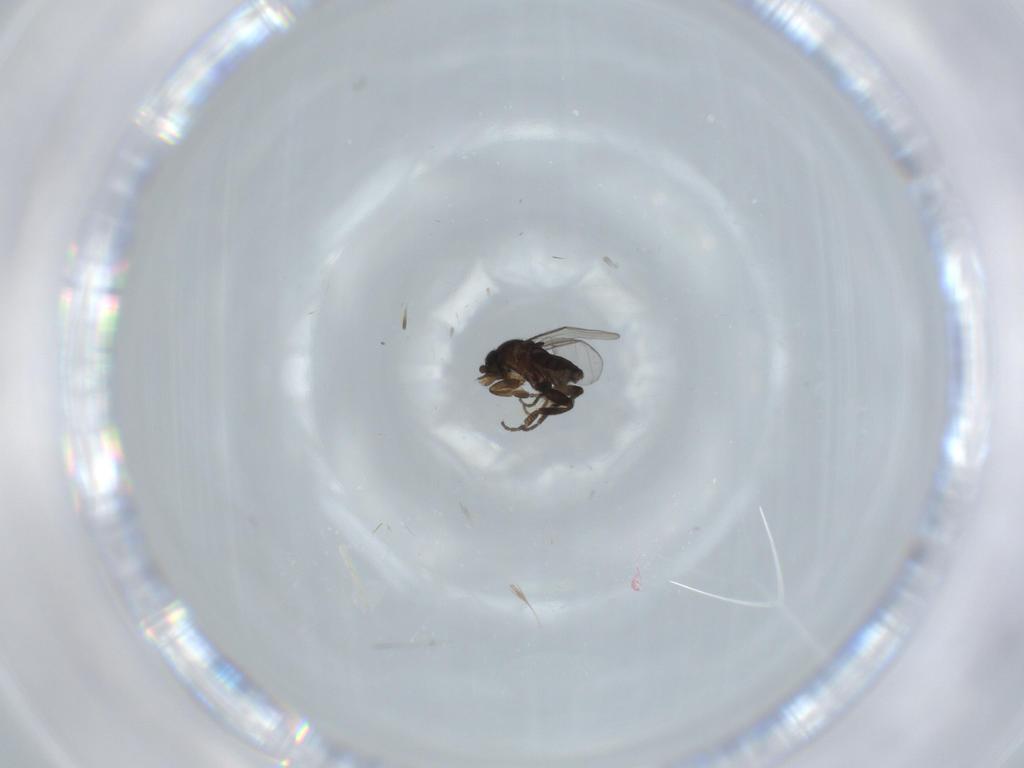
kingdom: Animalia
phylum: Arthropoda
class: Insecta
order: Diptera
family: Phoridae
